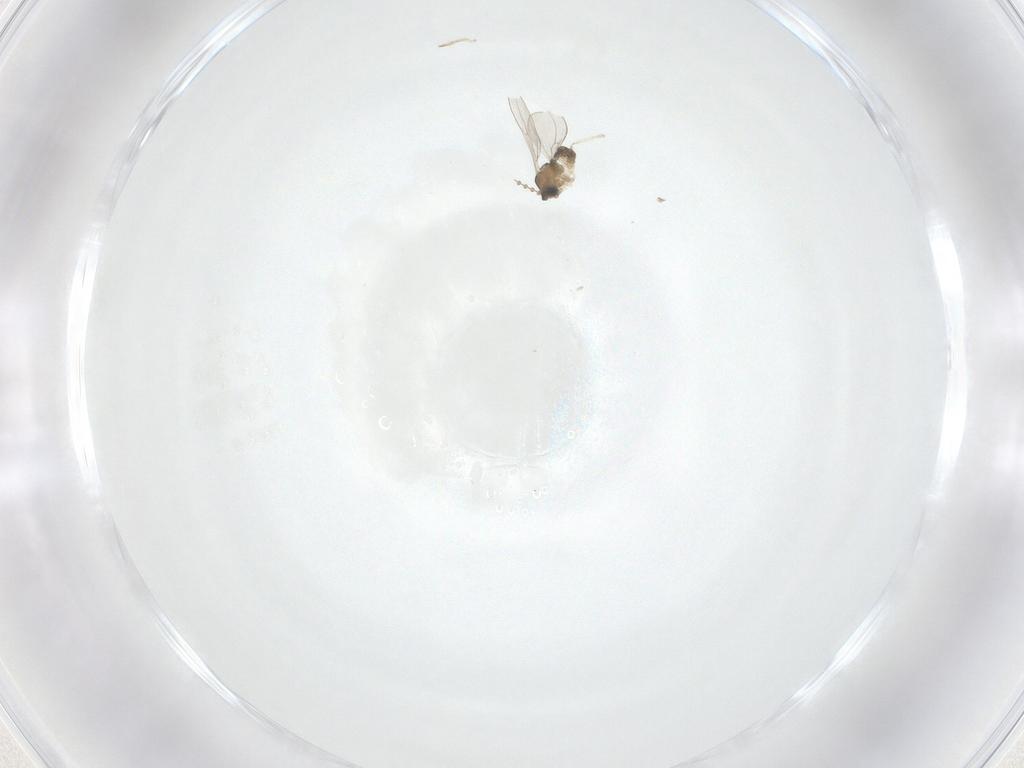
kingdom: Animalia
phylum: Arthropoda
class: Insecta
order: Diptera
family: Cecidomyiidae
